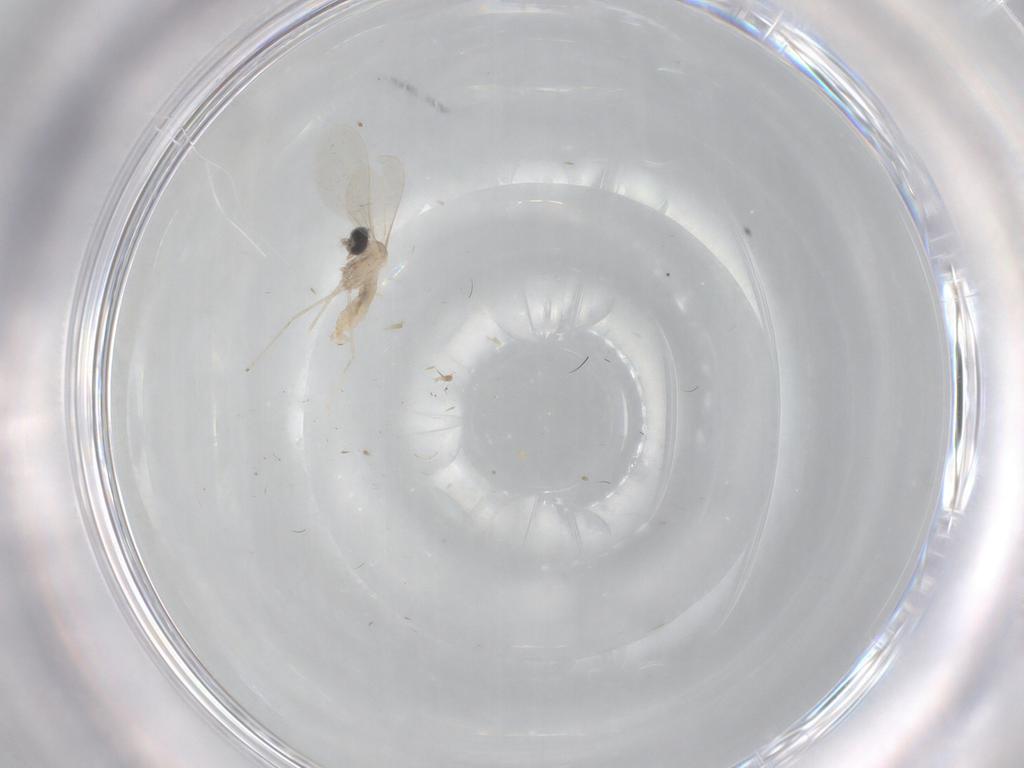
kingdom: Animalia
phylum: Arthropoda
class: Insecta
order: Diptera
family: Cecidomyiidae
